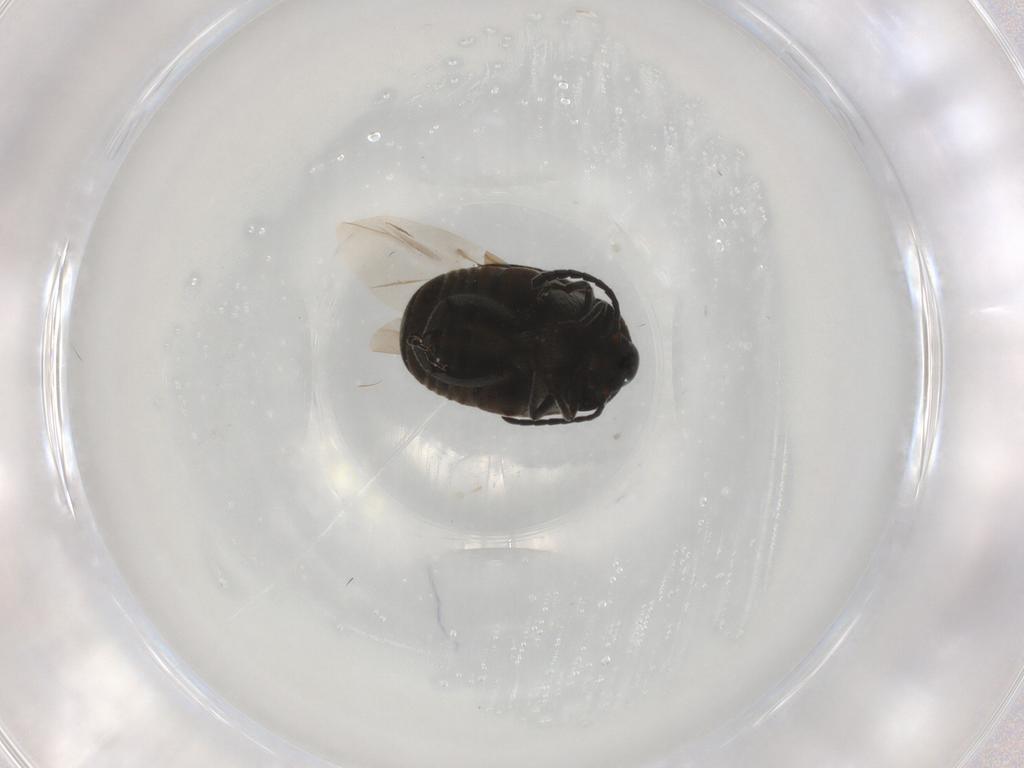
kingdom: Animalia
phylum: Arthropoda
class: Insecta
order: Coleoptera
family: Chrysomelidae
